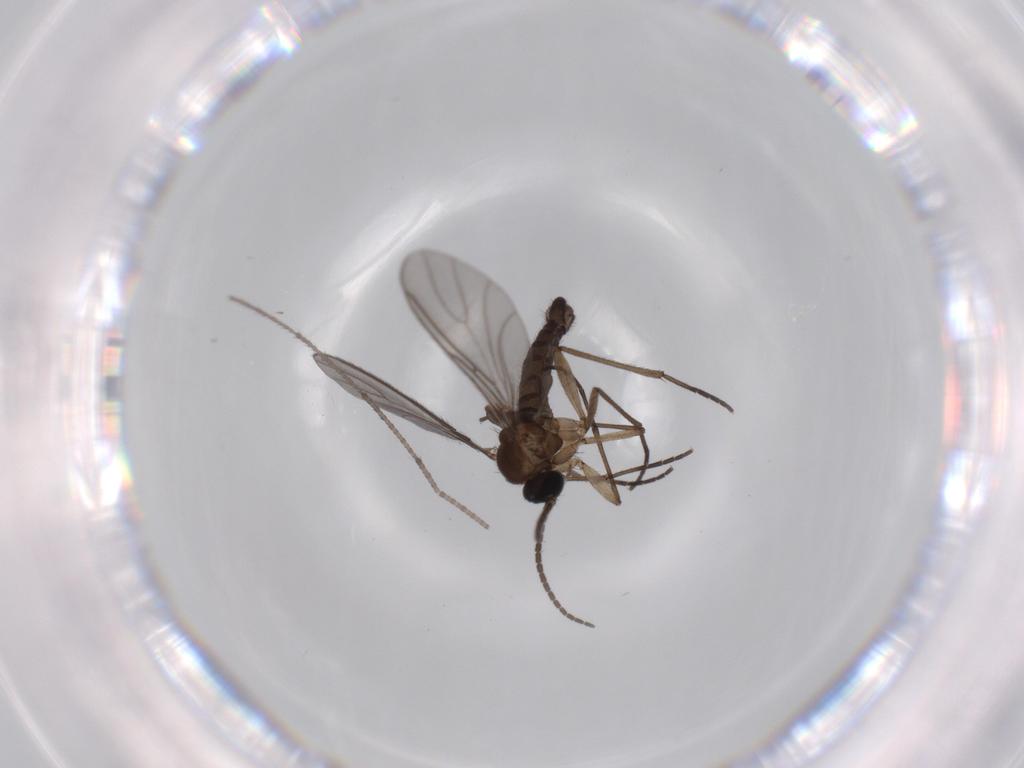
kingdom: Animalia
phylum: Arthropoda
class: Insecta
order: Diptera
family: Sciaridae
